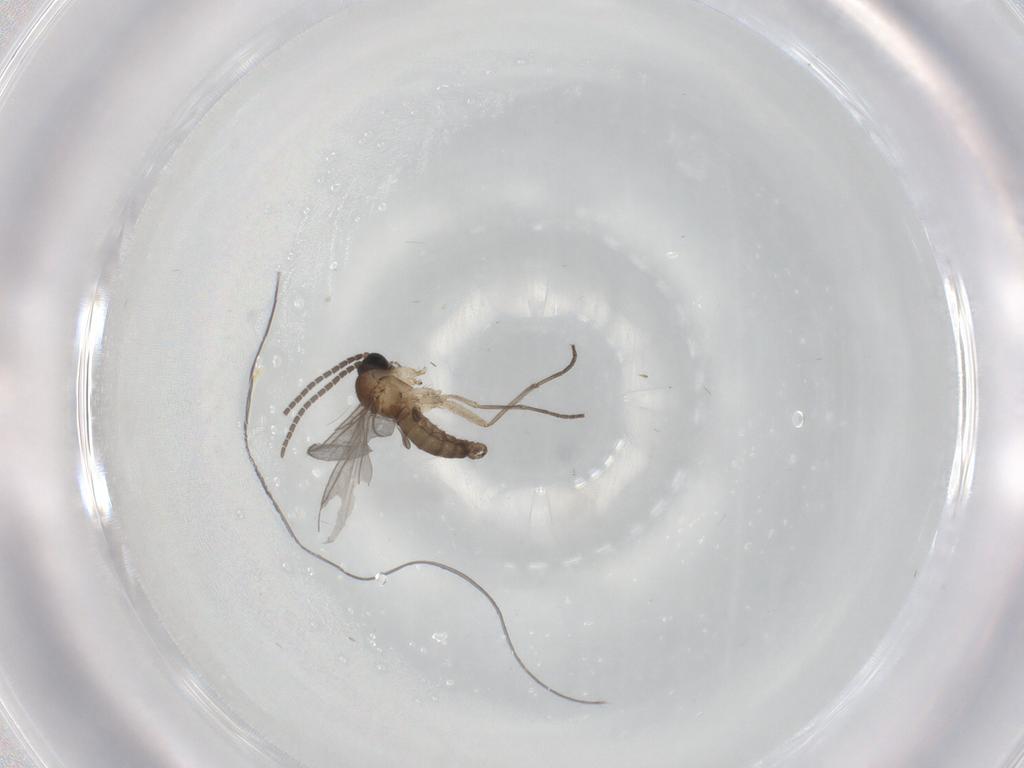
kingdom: Animalia
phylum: Arthropoda
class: Insecta
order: Diptera
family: Sciaridae
